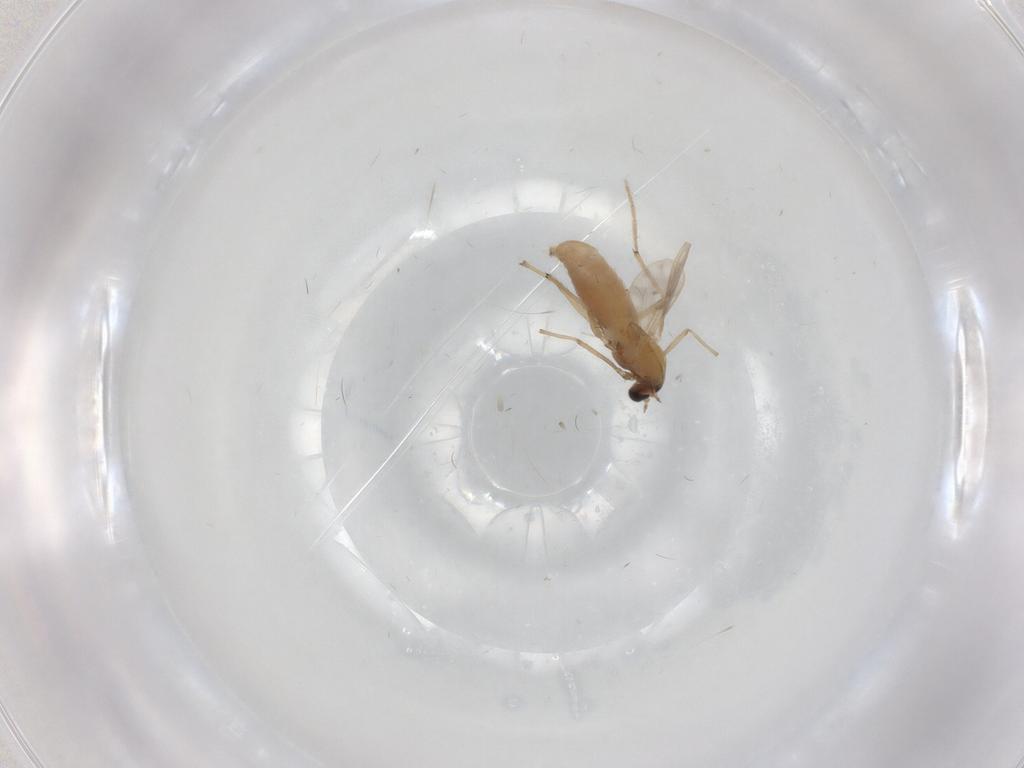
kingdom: Animalia
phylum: Arthropoda
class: Insecta
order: Diptera
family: Chironomidae
